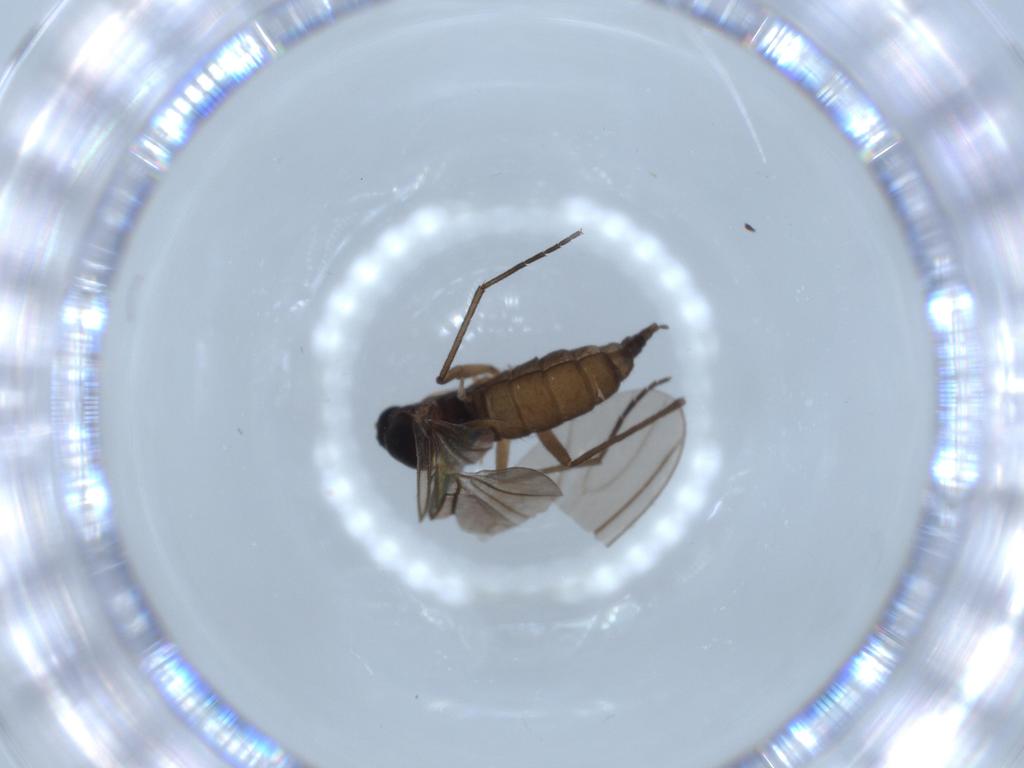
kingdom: Animalia
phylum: Arthropoda
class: Insecta
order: Diptera
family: Sciaridae
